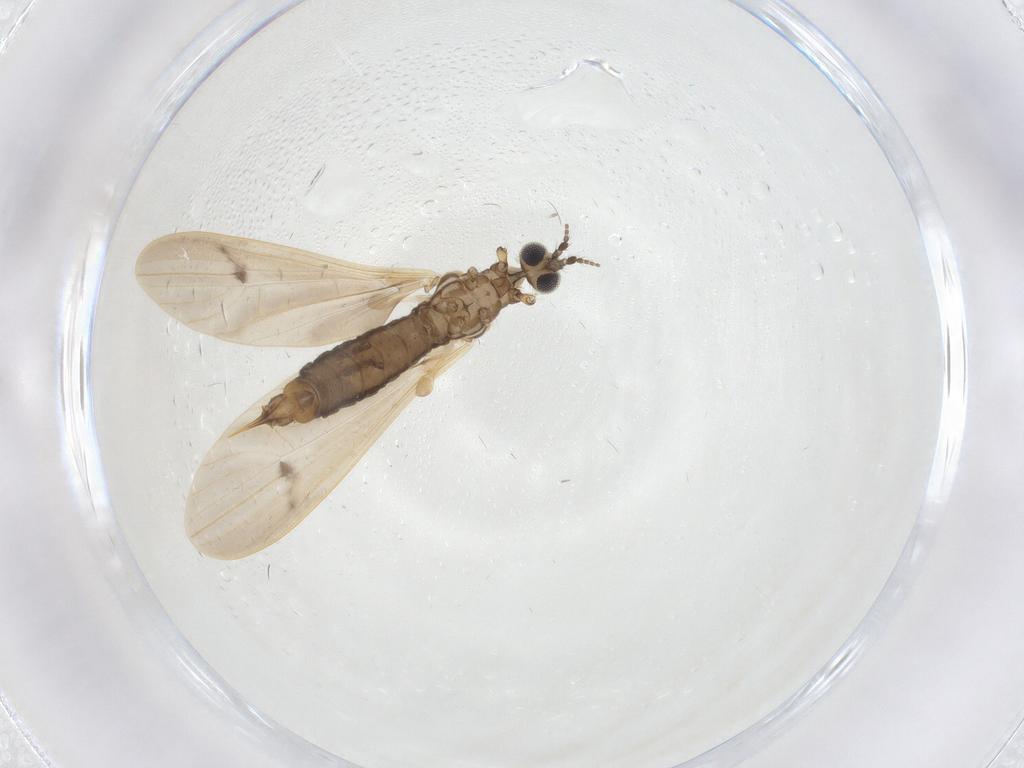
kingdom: Animalia
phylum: Arthropoda
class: Insecta
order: Diptera
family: Limoniidae
